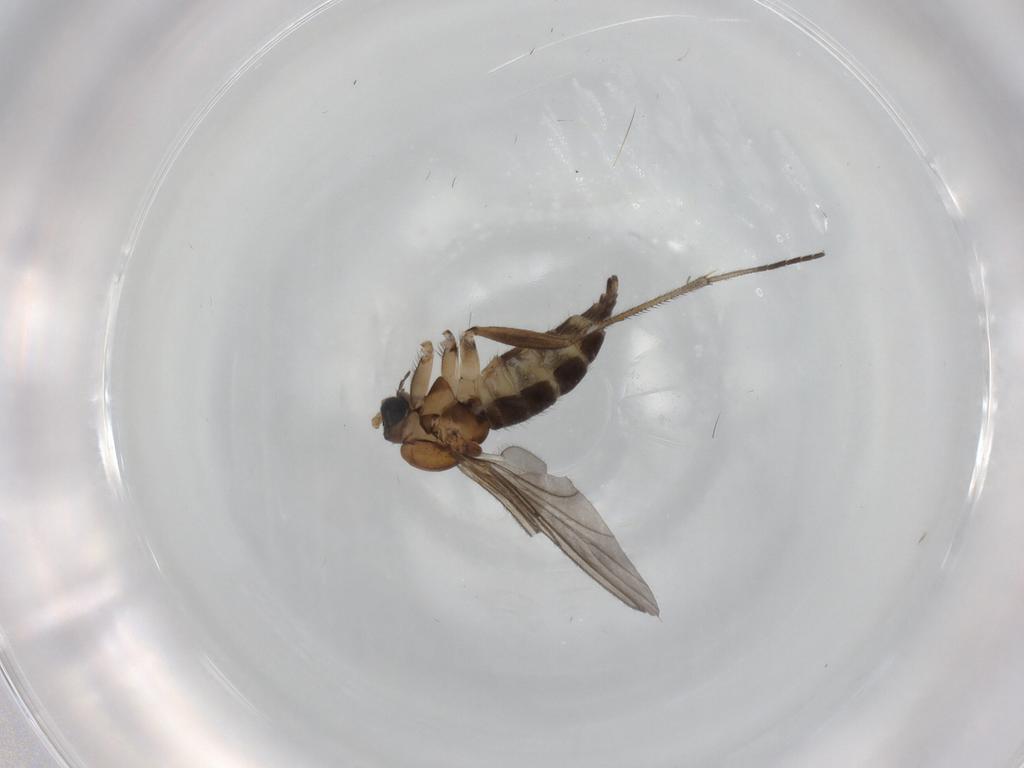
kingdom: Animalia
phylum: Arthropoda
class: Insecta
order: Diptera
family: Sciaridae
